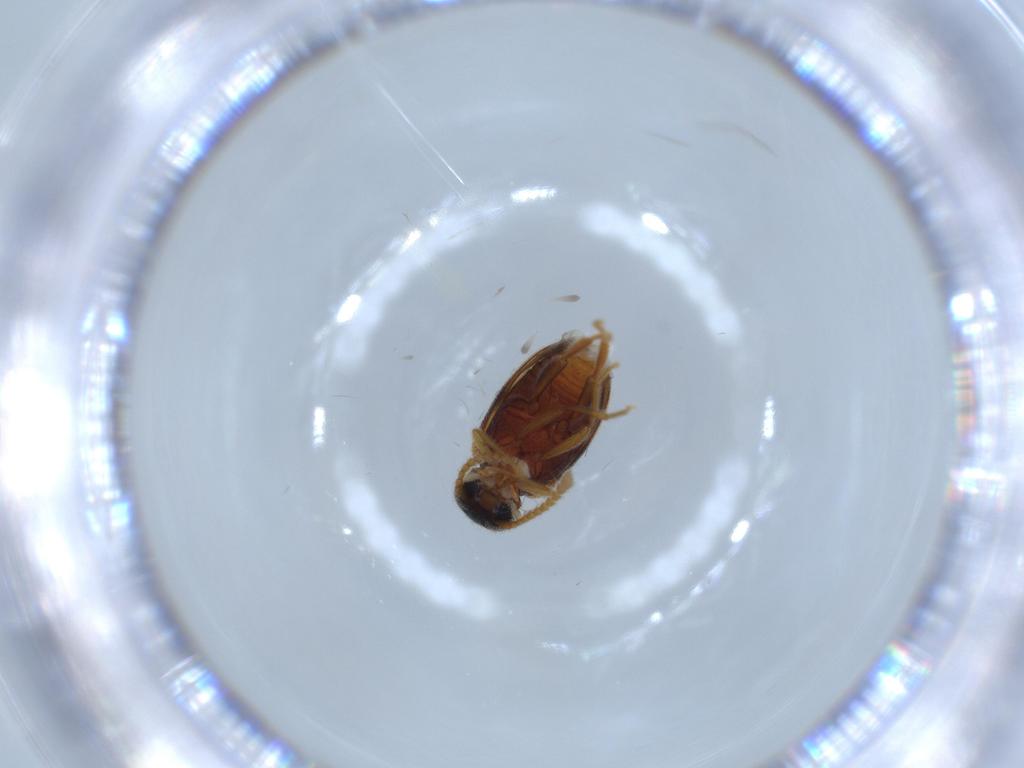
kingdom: Animalia
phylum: Arthropoda
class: Insecta
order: Coleoptera
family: Aderidae
